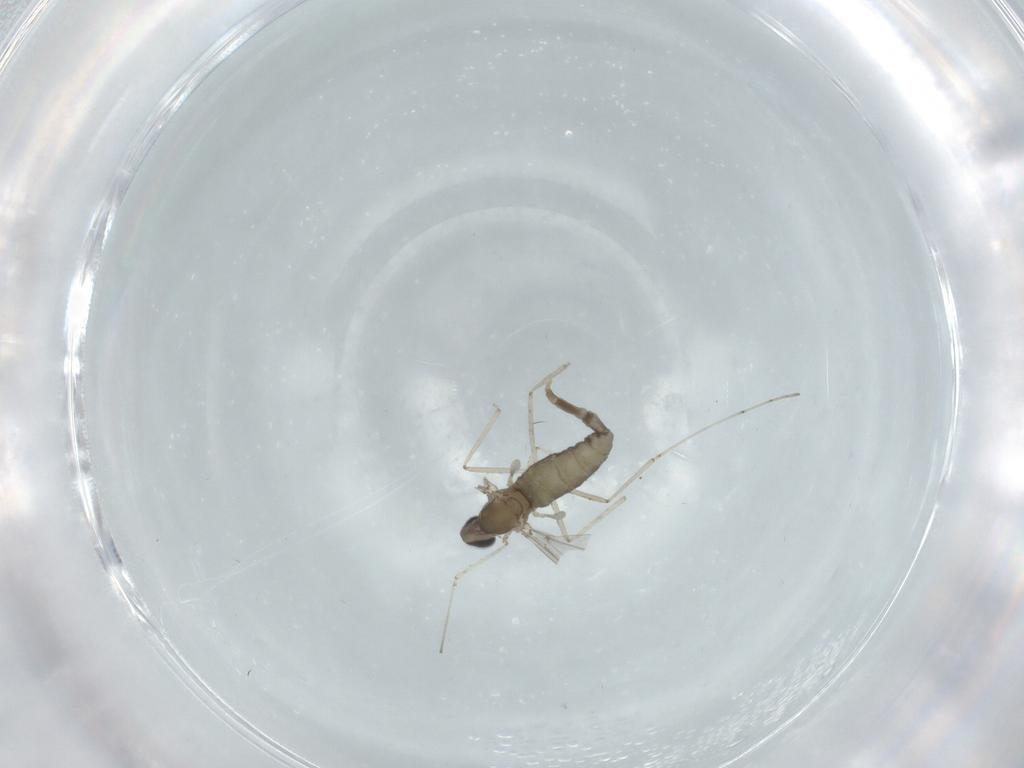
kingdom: Animalia
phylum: Arthropoda
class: Insecta
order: Diptera
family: Cecidomyiidae
